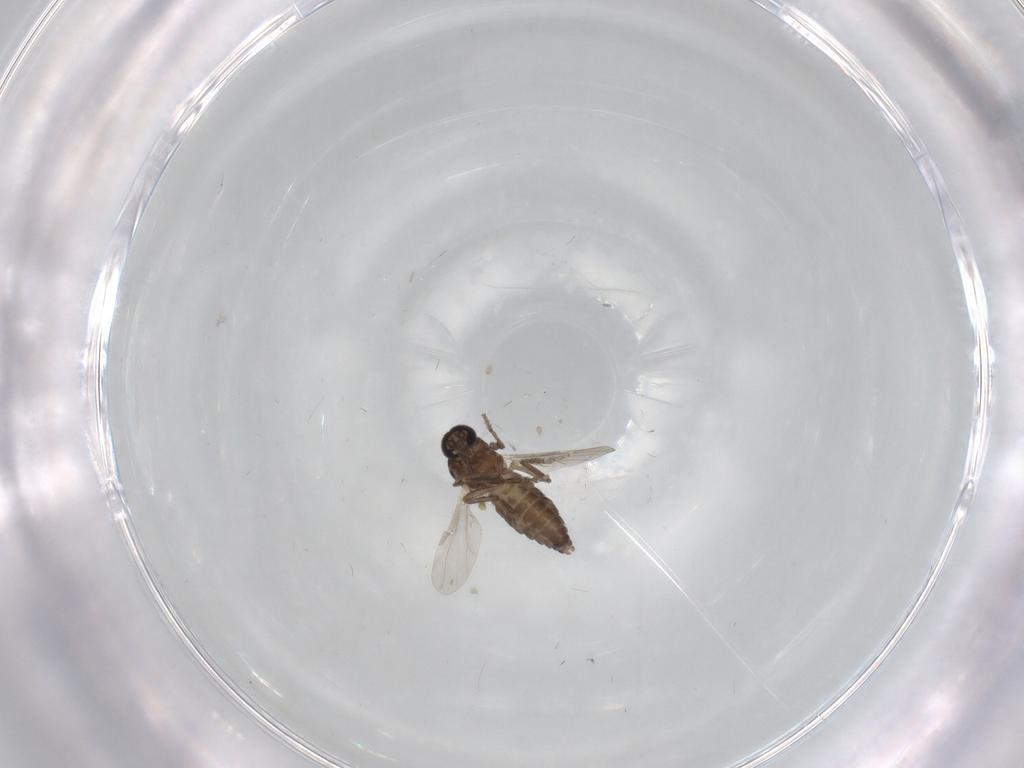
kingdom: Animalia
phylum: Arthropoda
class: Insecta
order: Diptera
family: Ceratopogonidae
